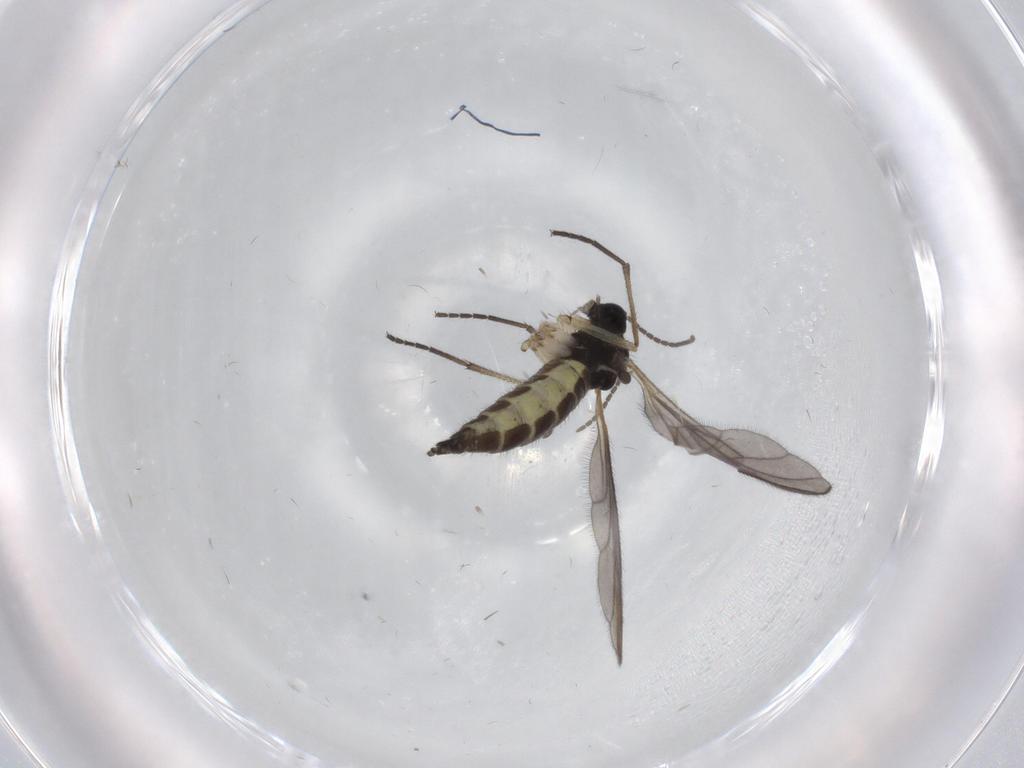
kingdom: Animalia
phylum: Arthropoda
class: Insecta
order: Diptera
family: Sciaridae
